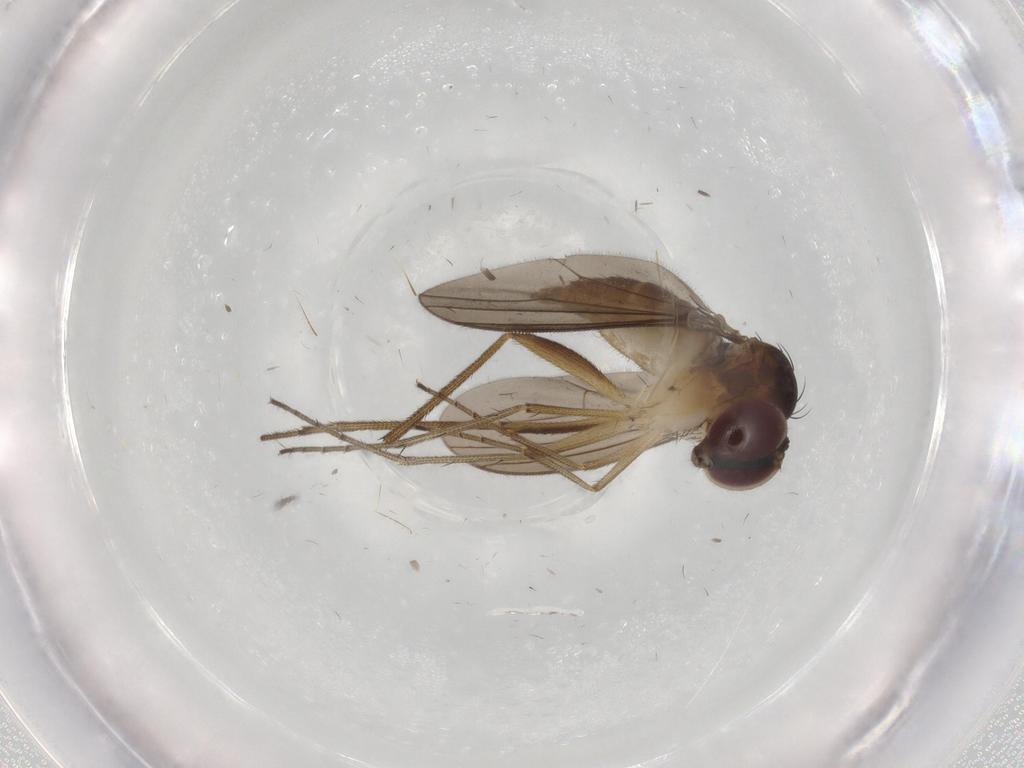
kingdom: Animalia
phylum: Arthropoda
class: Insecta
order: Diptera
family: Dolichopodidae
